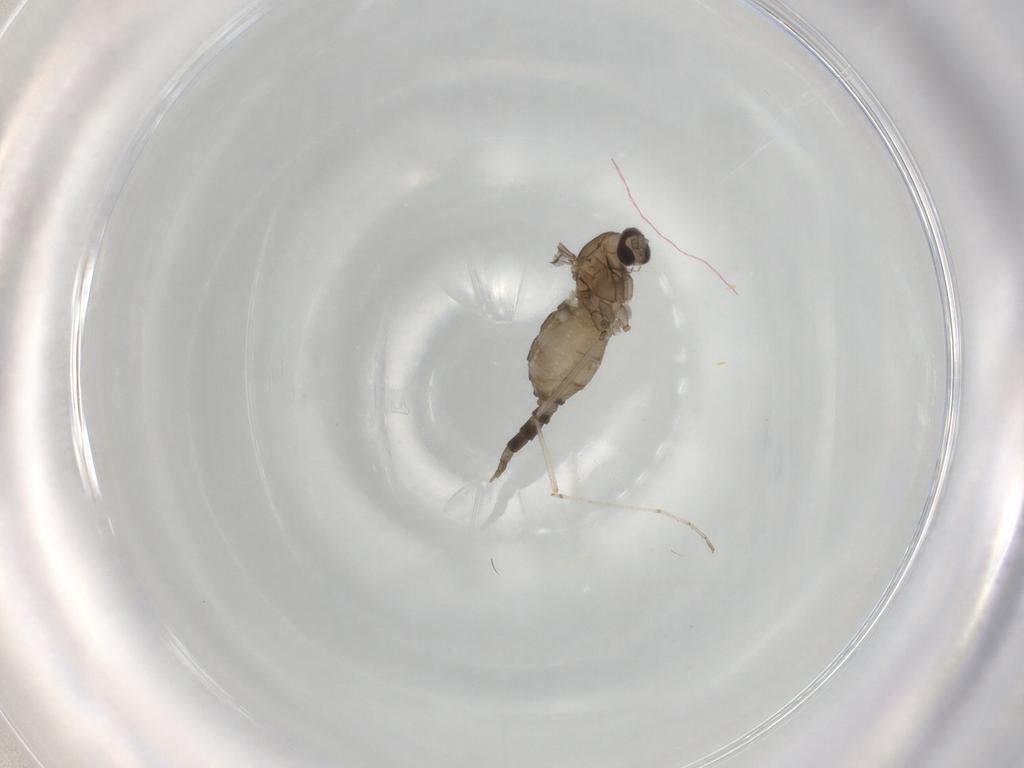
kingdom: Animalia
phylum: Arthropoda
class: Insecta
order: Diptera
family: Cecidomyiidae
